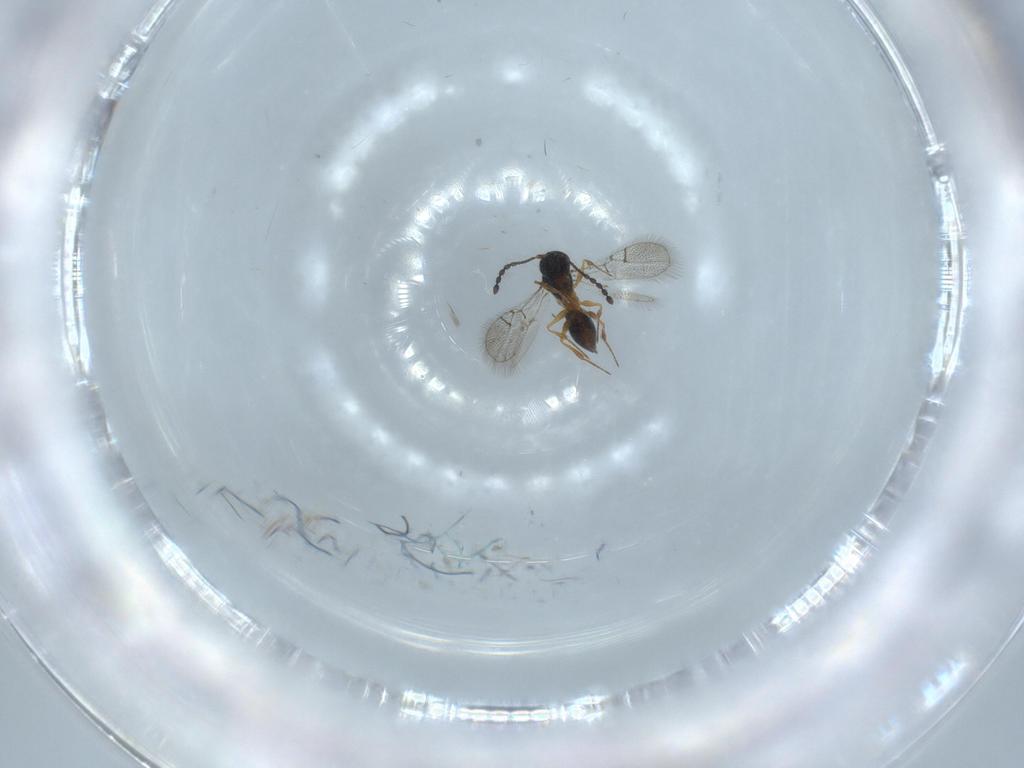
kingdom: Animalia
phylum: Arthropoda
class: Insecta
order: Hymenoptera
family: Figitidae
